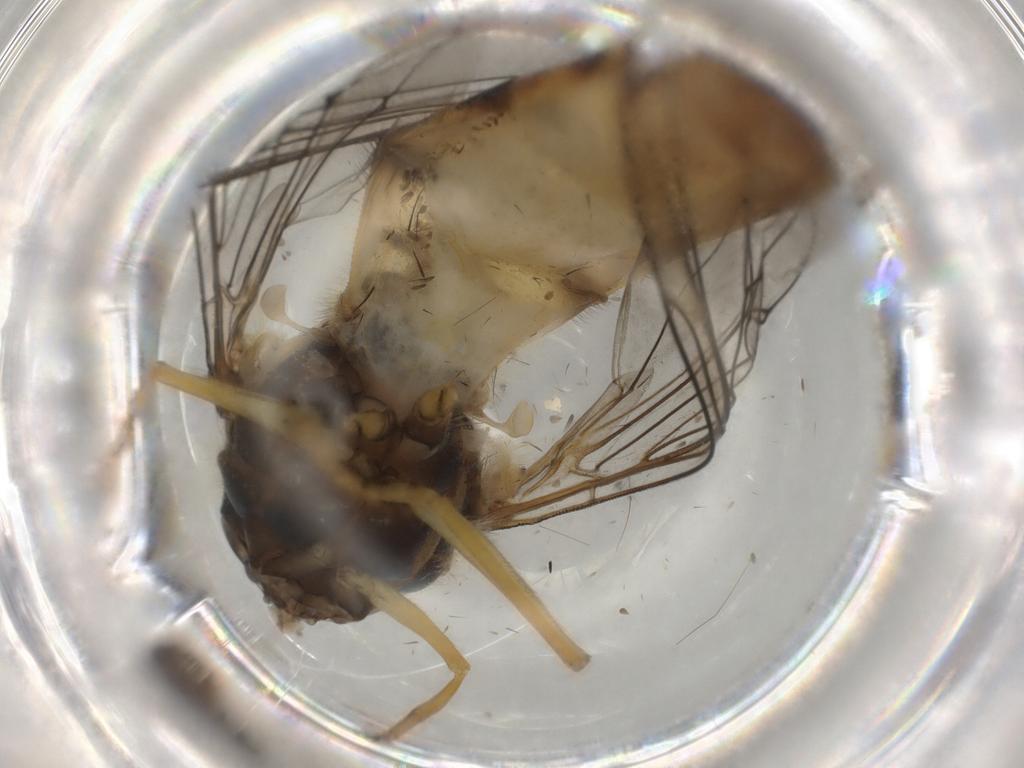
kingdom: Animalia
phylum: Arthropoda
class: Insecta
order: Diptera
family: Syrphidae
